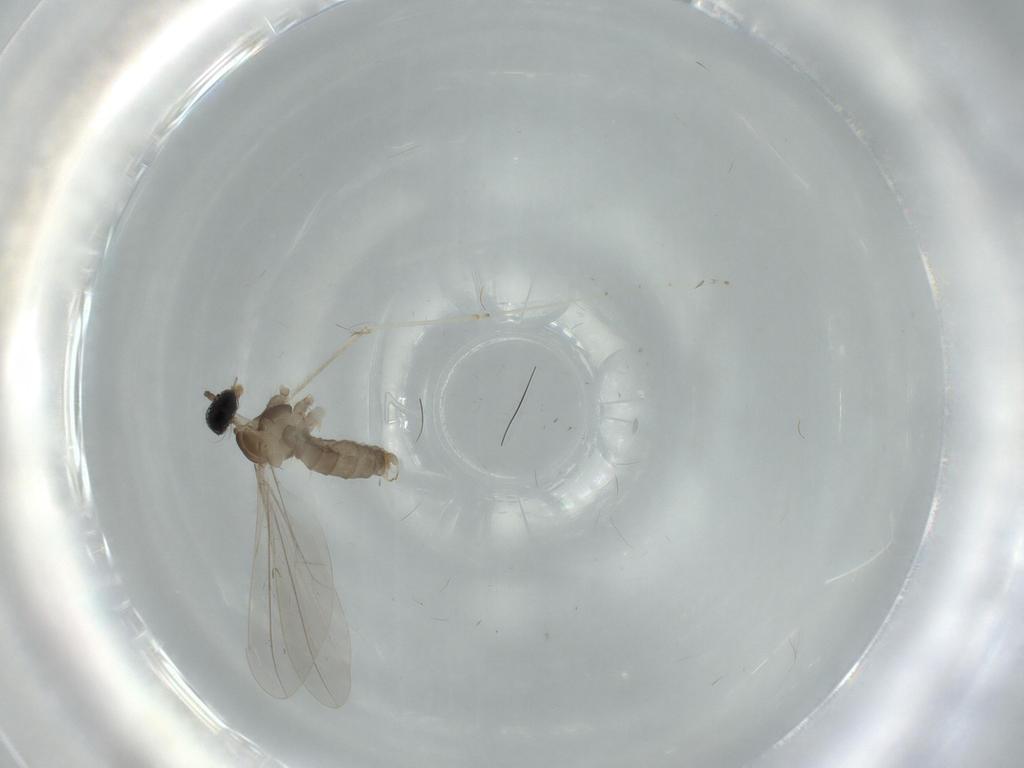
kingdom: Animalia
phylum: Arthropoda
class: Insecta
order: Diptera
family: Cecidomyiidae
